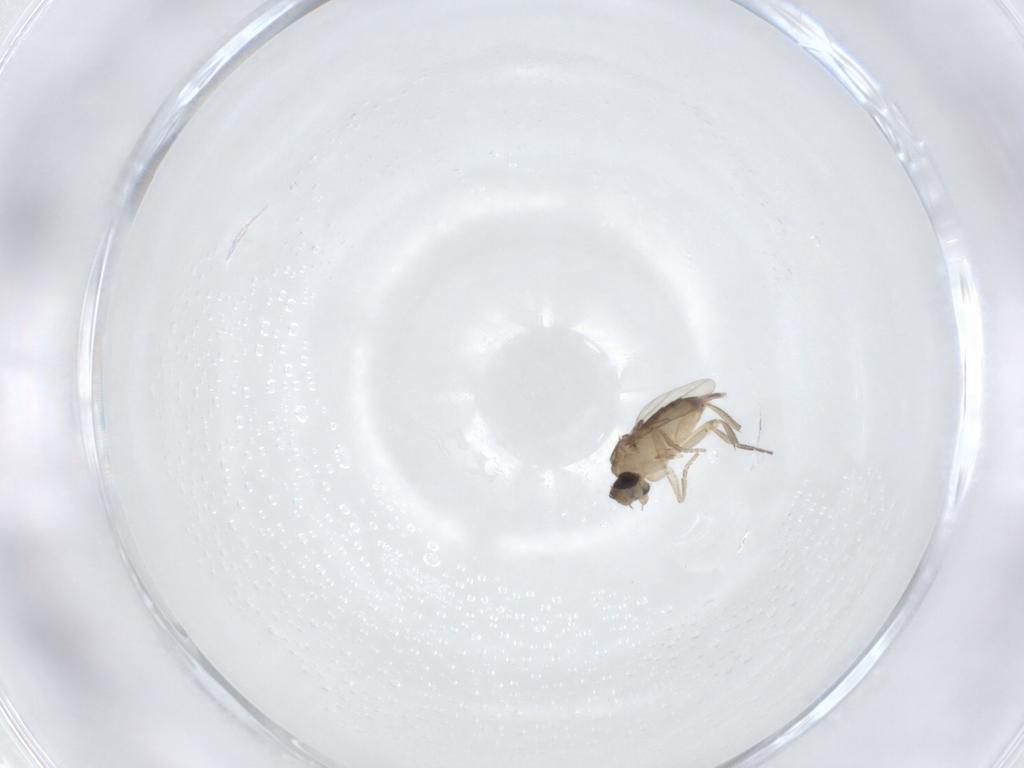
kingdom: Animalia
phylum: Arthropoda
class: Insecta
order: Diptera
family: Phoridae
